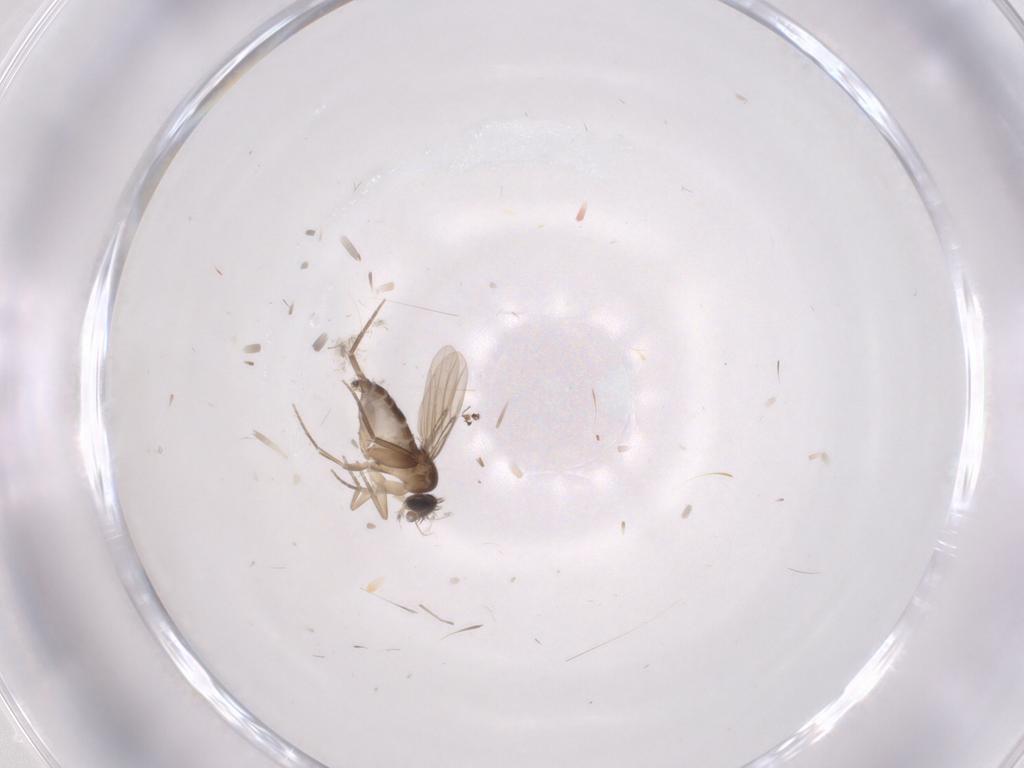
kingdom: Animalia
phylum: Arthropoda
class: Insecta
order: Diptera
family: Phoridae
